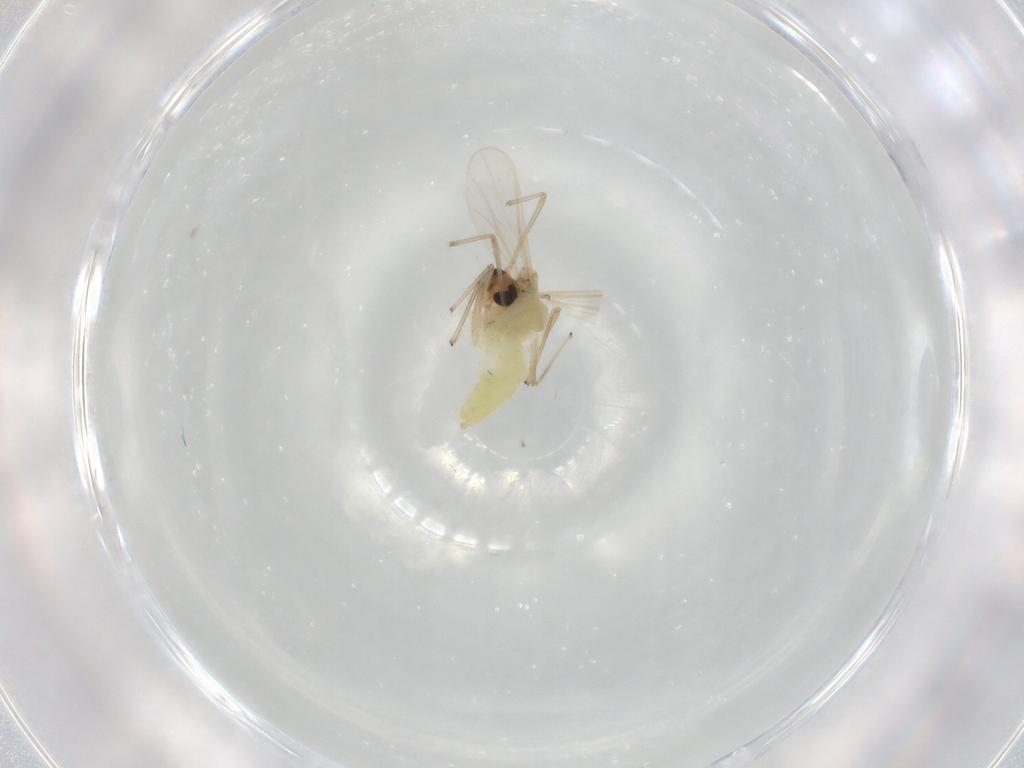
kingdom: Animalia
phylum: Arthropoda
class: Insecta
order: Diptera
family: Chironomidae
